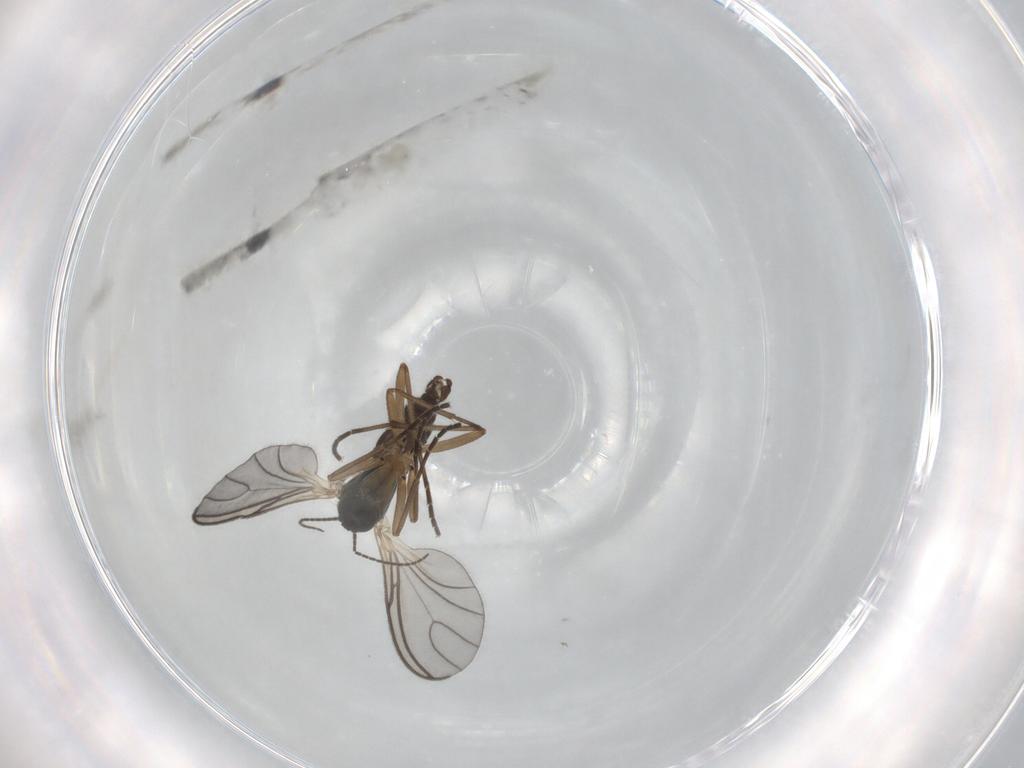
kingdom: Animalia
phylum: Arthropoda
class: Insecta
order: Diptera
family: Sciaridae
